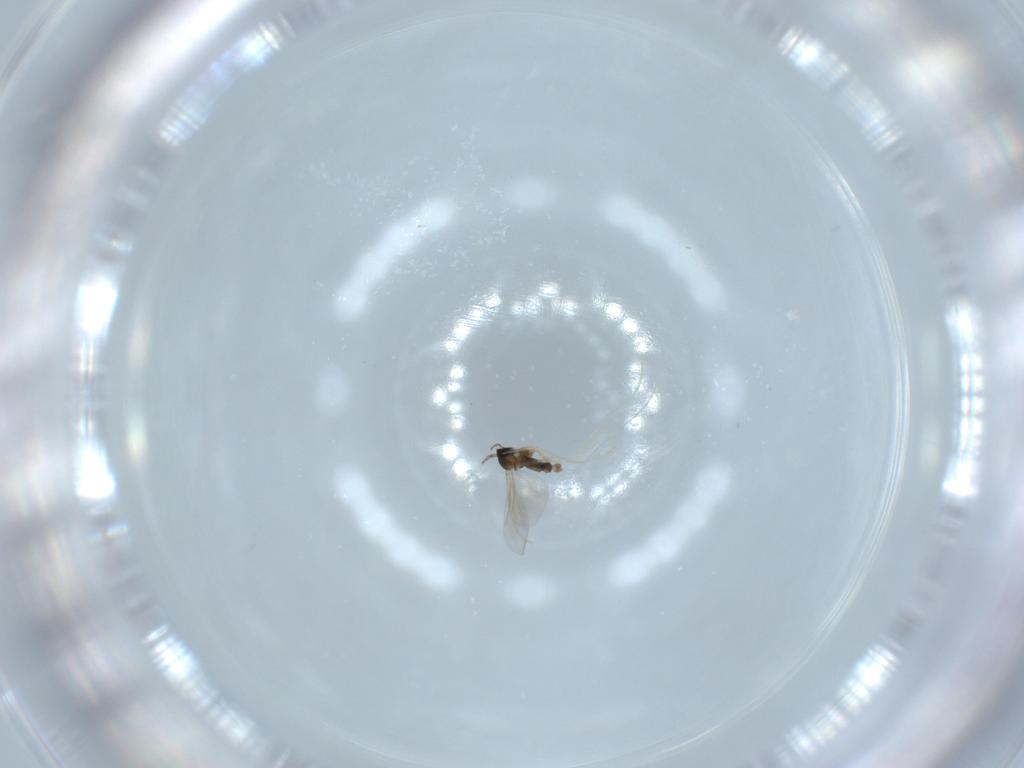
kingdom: Animalia
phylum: Arthropoda
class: Insecta
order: Diptera
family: Cecidomyiidae
